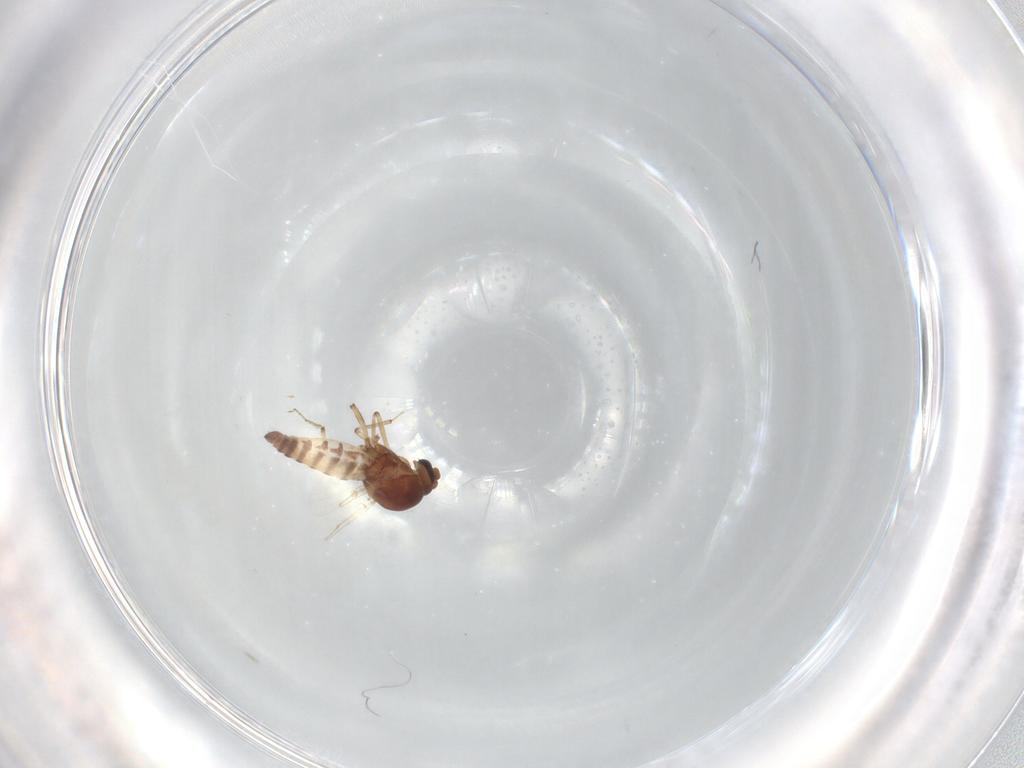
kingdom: Animalia
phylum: Arthropoda
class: Insecta
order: Diptera
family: Ceratopogonidae
